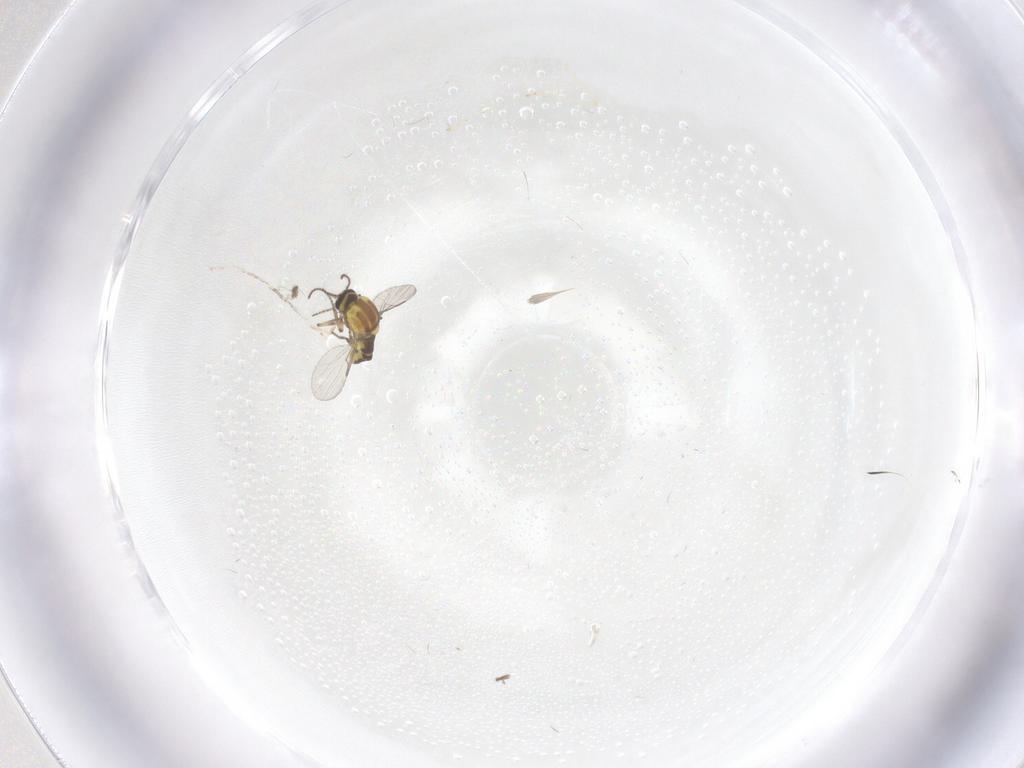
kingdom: Animalia
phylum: Arthropoda
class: Insecta
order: Diptera
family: Ceratopogonidae
